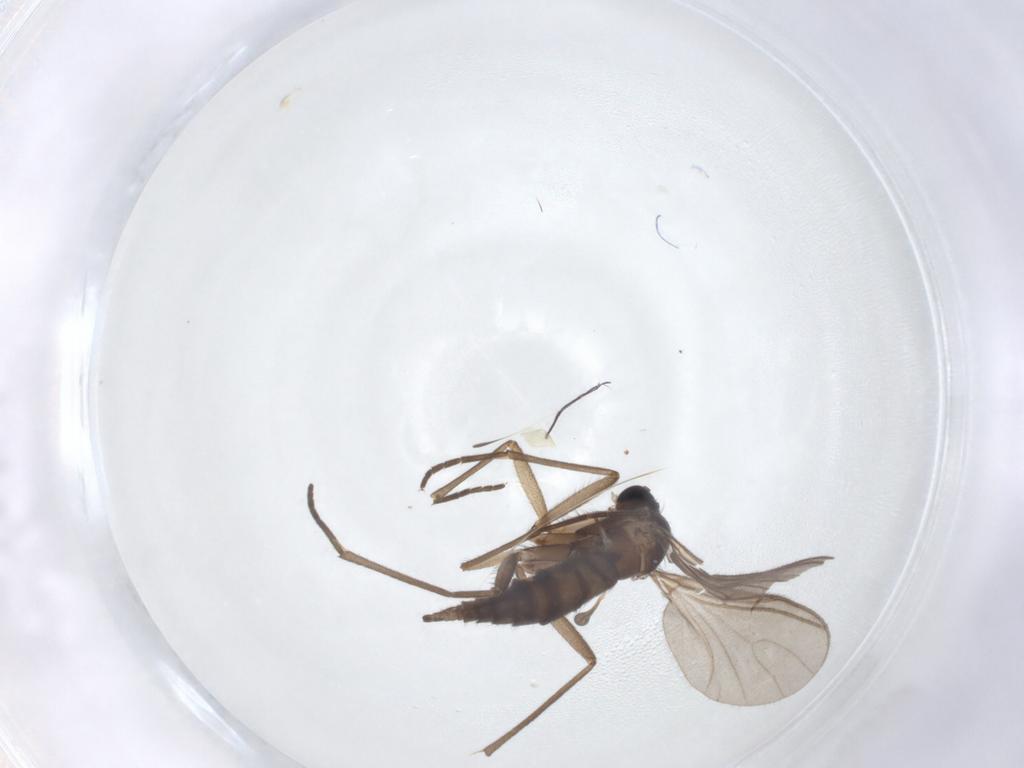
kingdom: Animalia
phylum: Arthropoda
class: Insecta
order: Diptera
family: Sciaridae
